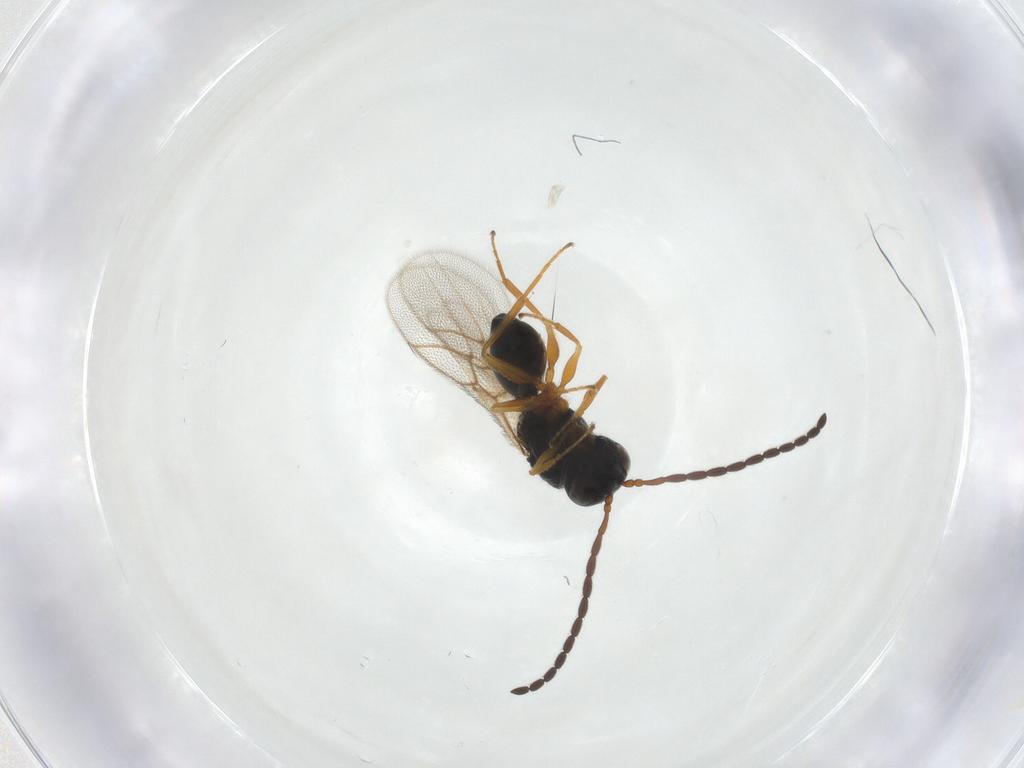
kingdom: Animalia
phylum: Arthropoda
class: Insecta
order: Hymenoptera
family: Figitidae
